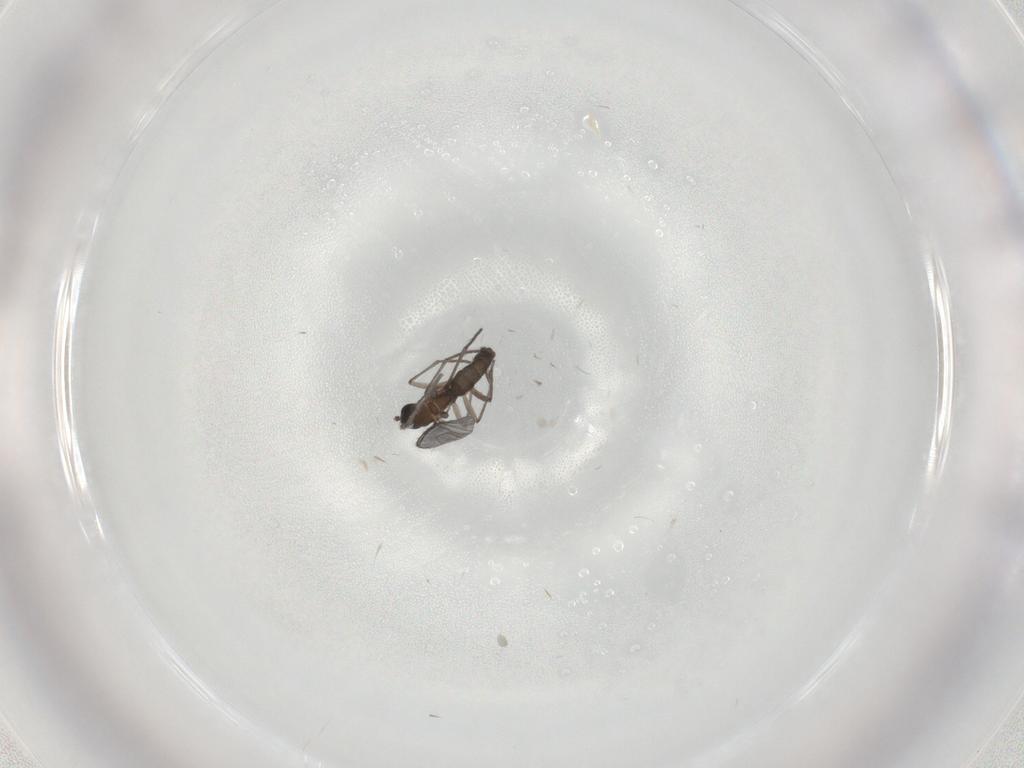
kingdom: Animalia
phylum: Arthropoda
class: Insecta
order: Diptera
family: Sciaridae
